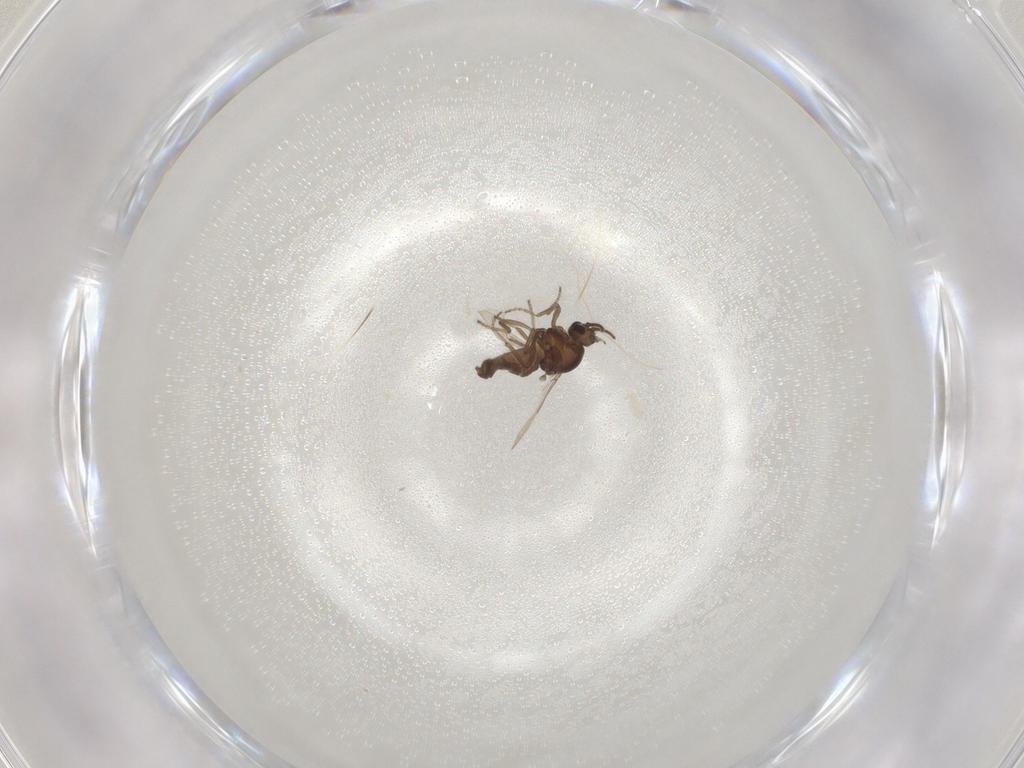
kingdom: Animalia
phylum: Arthropoda
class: Insecta
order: Diptera
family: Ceratopogonidae
